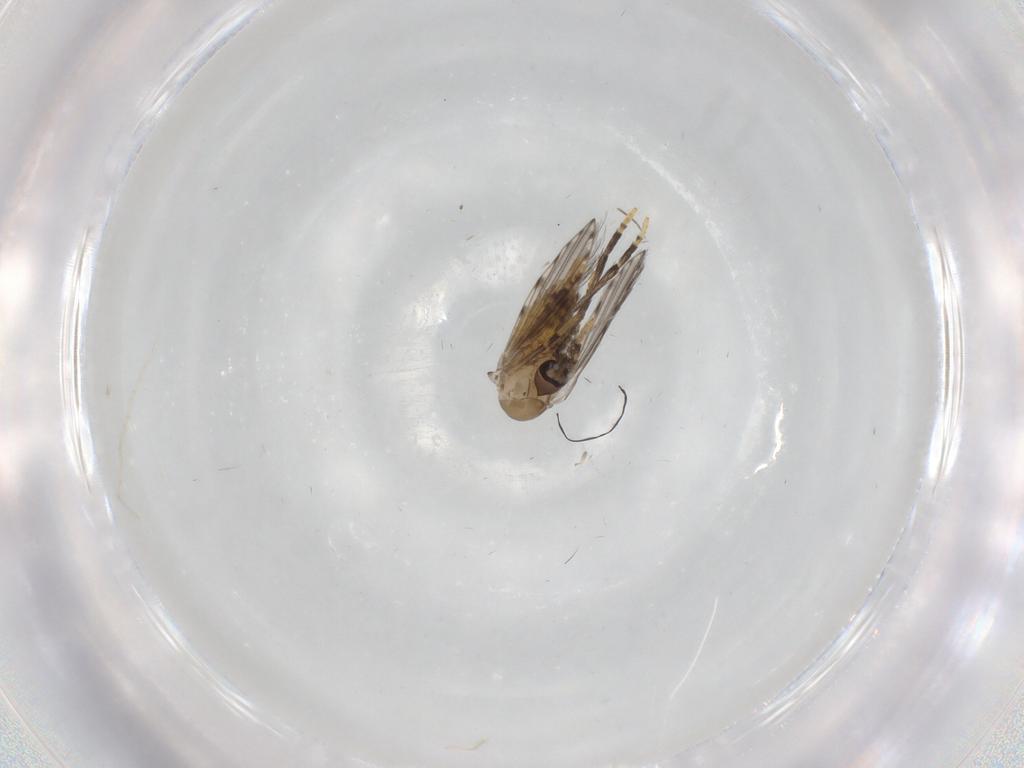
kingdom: Animalia
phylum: Arthropoda
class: Insecta
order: Diptera
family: Psychodidae
